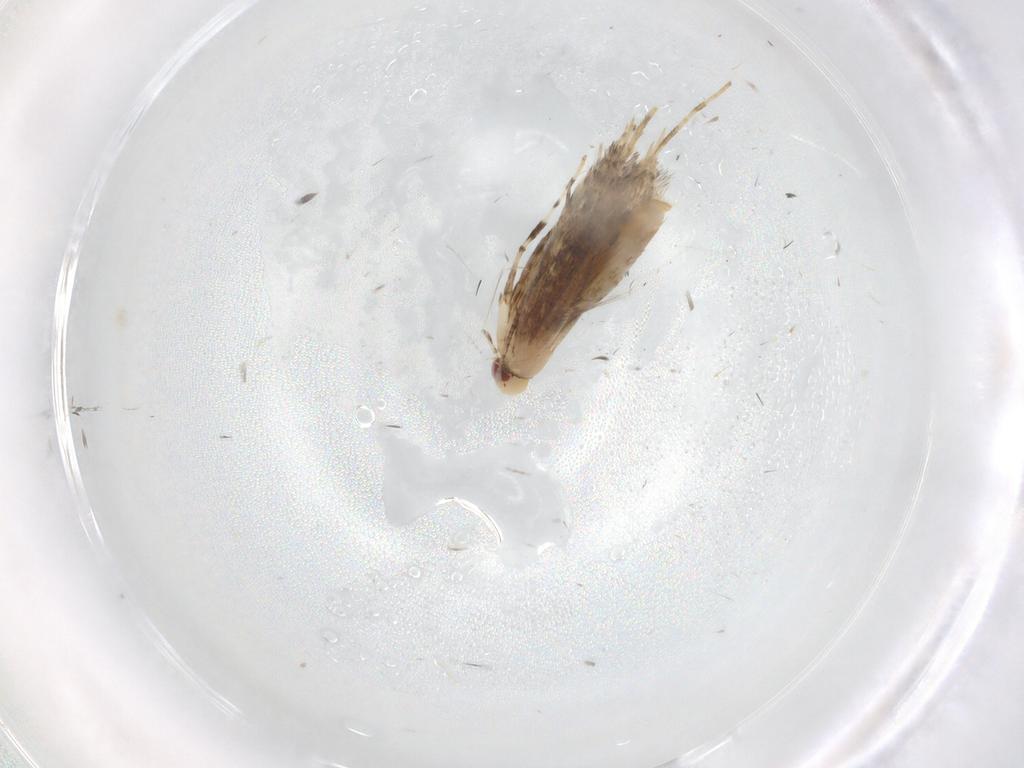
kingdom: Animalia
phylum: Arthropoda
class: Insecta
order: Lepidoptera
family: Gracillariidae
